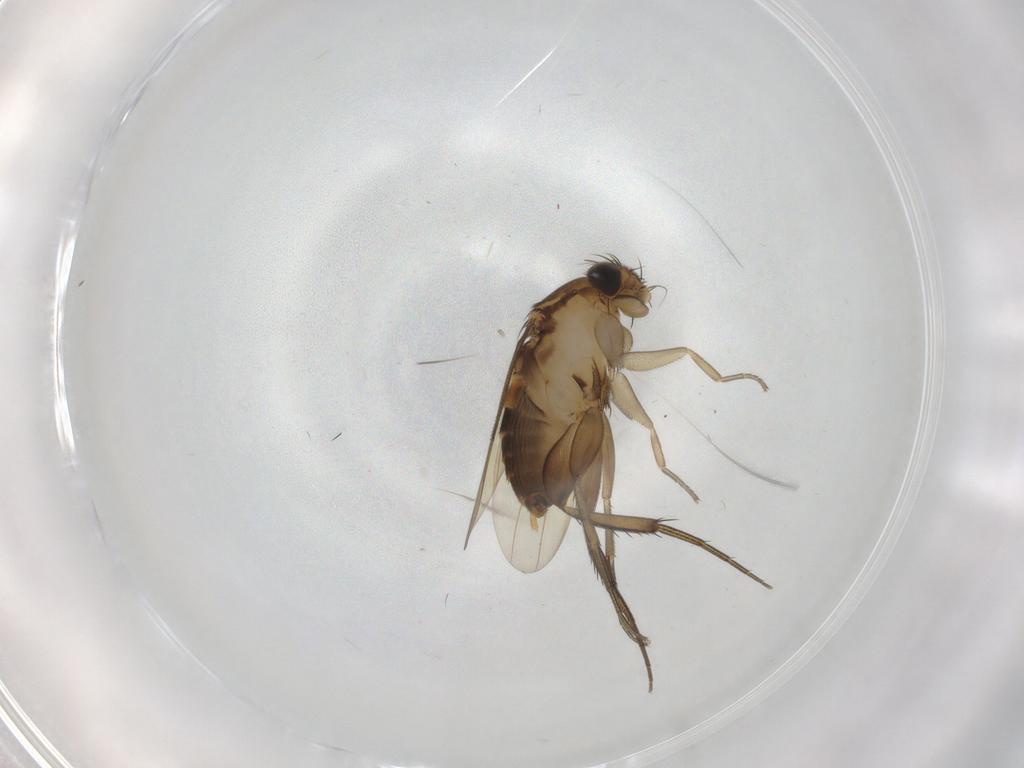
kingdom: Animalia
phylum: Arthropoda
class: Insecta
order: Diptera
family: Phoridae
